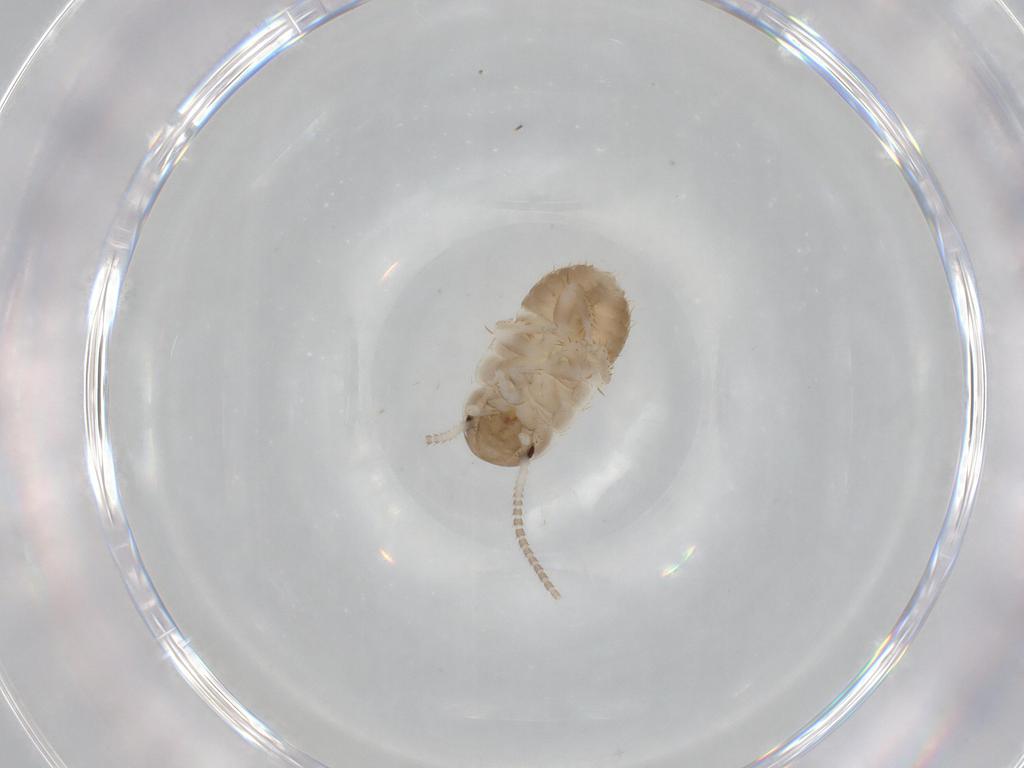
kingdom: Animalia
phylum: Arthropoda
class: Insecta
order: Blattodea
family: Ectobiidae
